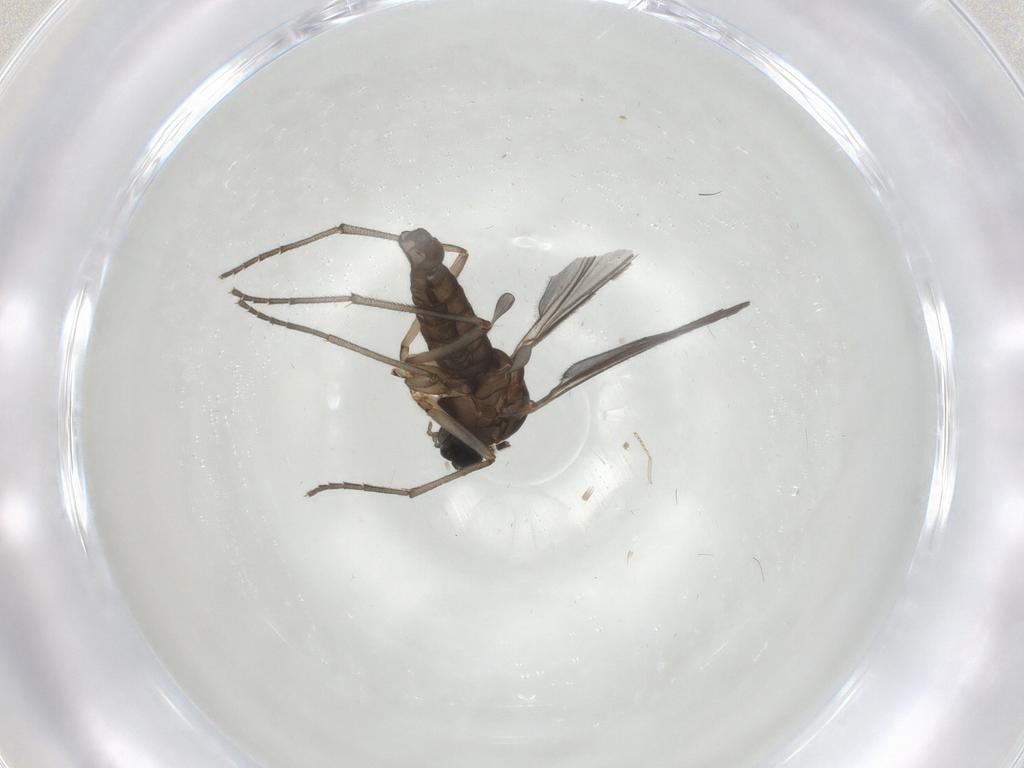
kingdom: Animalia
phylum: Arthropoda
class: Insecta
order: Diptera
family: Sciaridae
